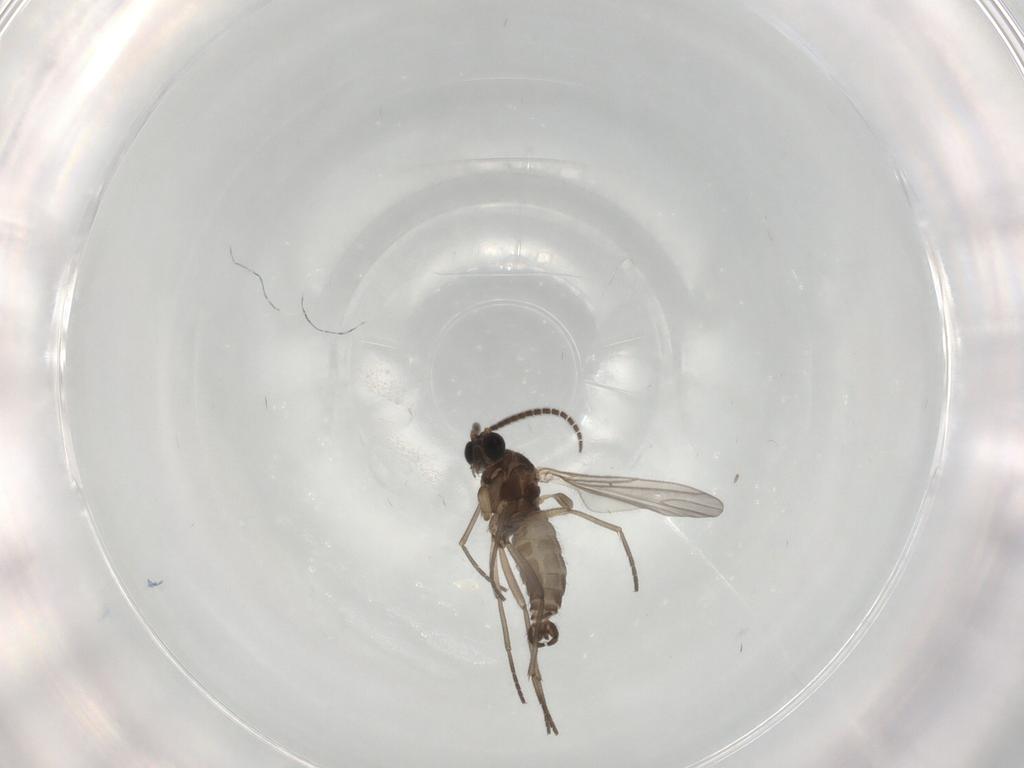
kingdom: Animalia
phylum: Arthropoda
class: Insecta
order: Diptera
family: Sciaridae
